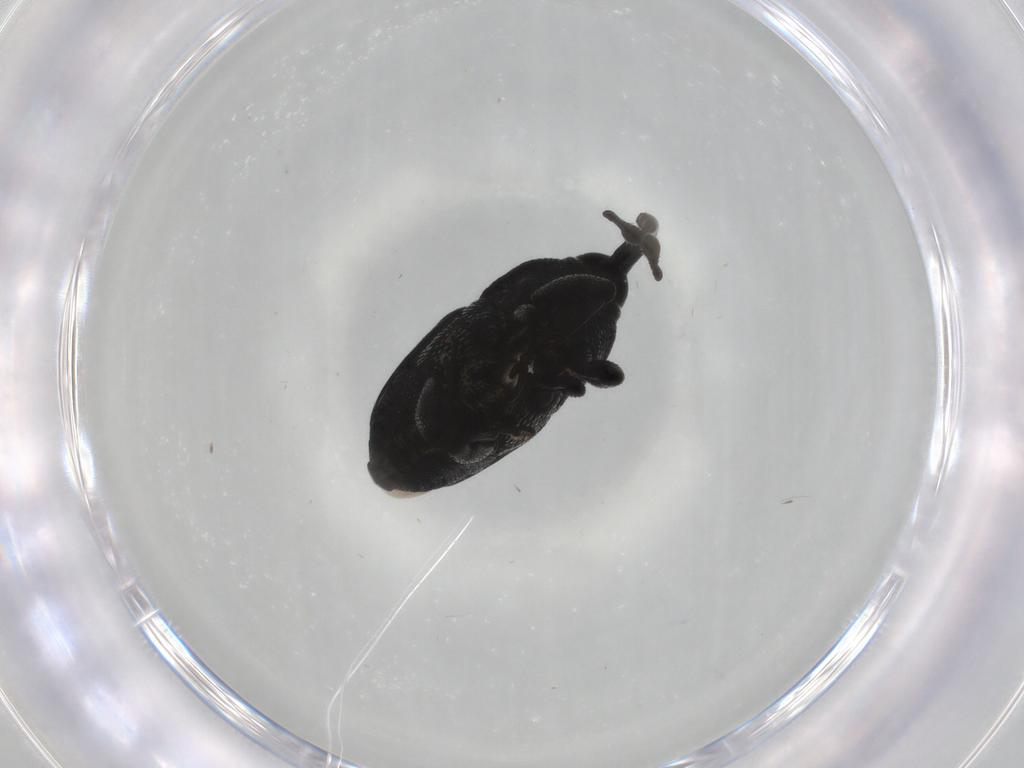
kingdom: Animalia
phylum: Arthropoda
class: Insecta
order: Coleoptera
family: Curculionidae
